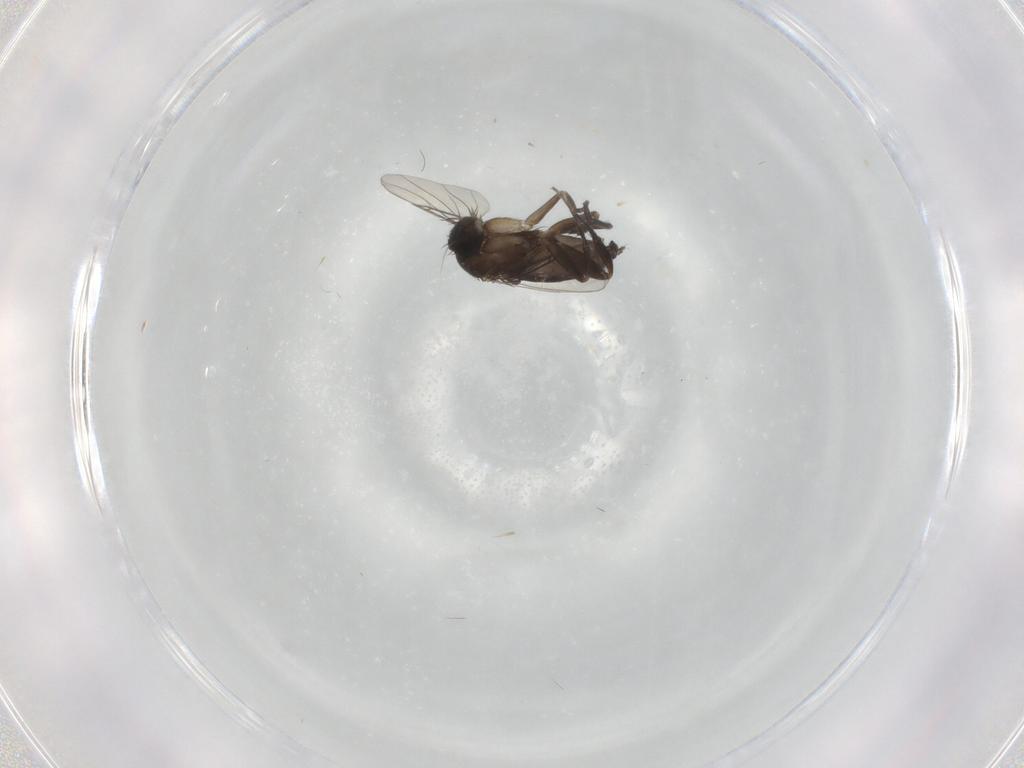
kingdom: Animalia
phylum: Arthropoda
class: Insecta
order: Diptera
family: Phoridae
